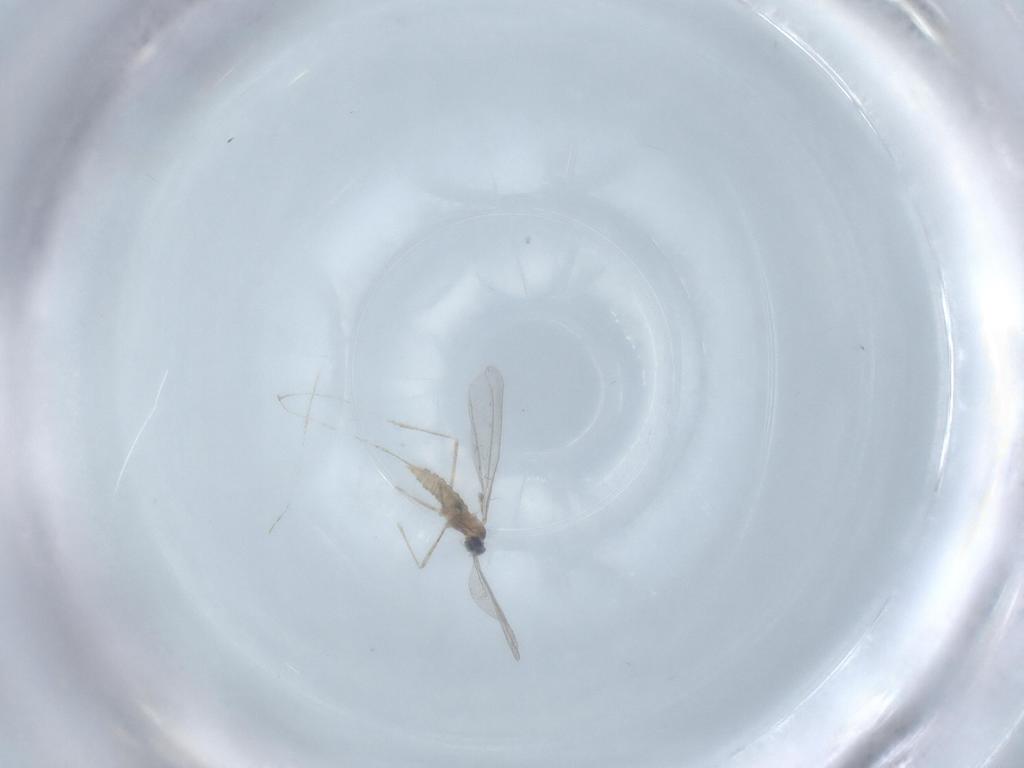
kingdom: Animalia
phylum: Arthropoda
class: Insecta
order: Diptera
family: Cecidomyiidae
